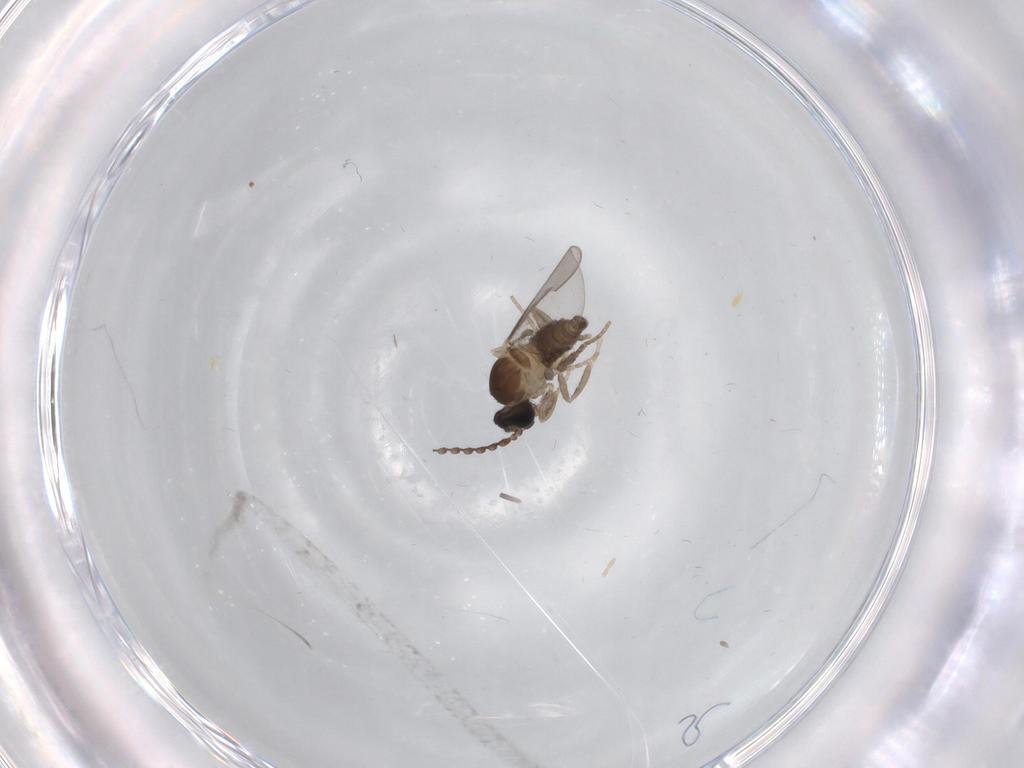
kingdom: Animalia
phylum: Arthropoda
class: Insecta
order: Diptera
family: Cecidomyiidae
